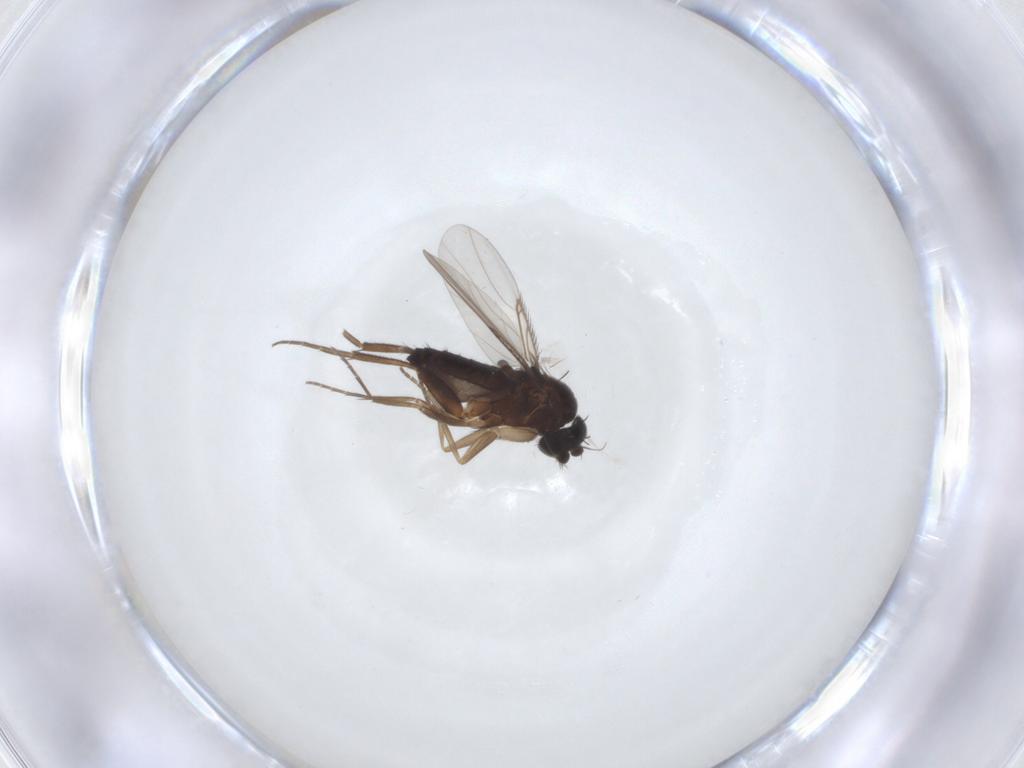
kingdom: Animalia
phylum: Arthropoda
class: Insecta
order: Diptera
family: Phoridae
